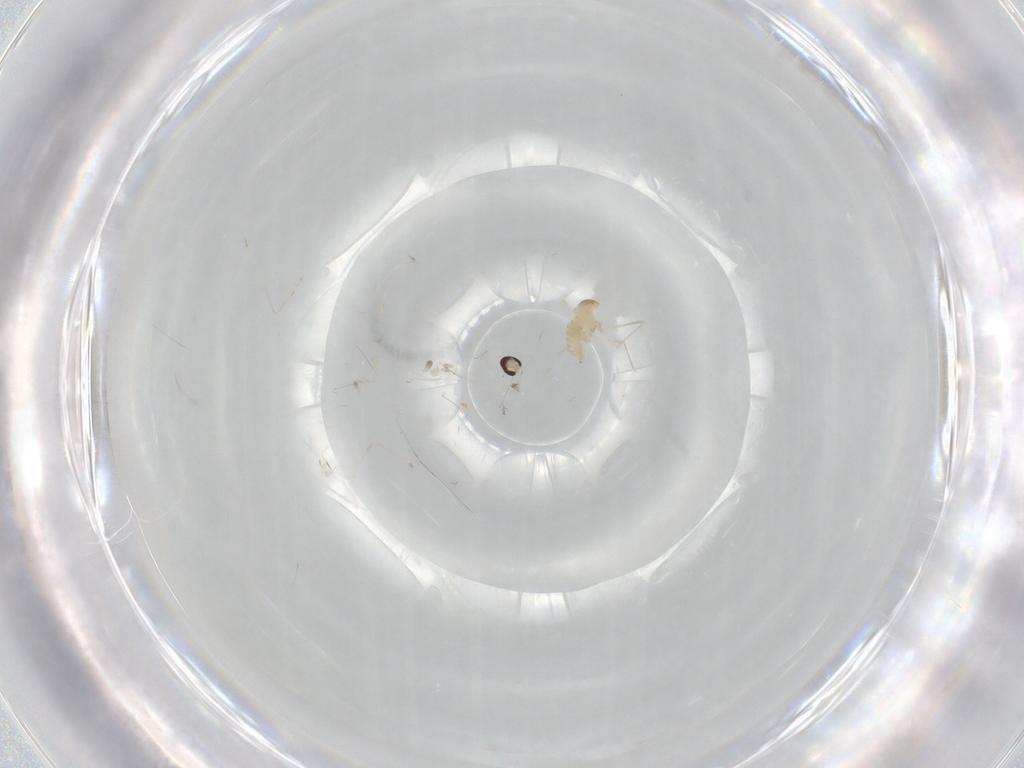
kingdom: Animalia
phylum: Arthropoda
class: Insecta
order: Diptera
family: Cecidomyiidae
